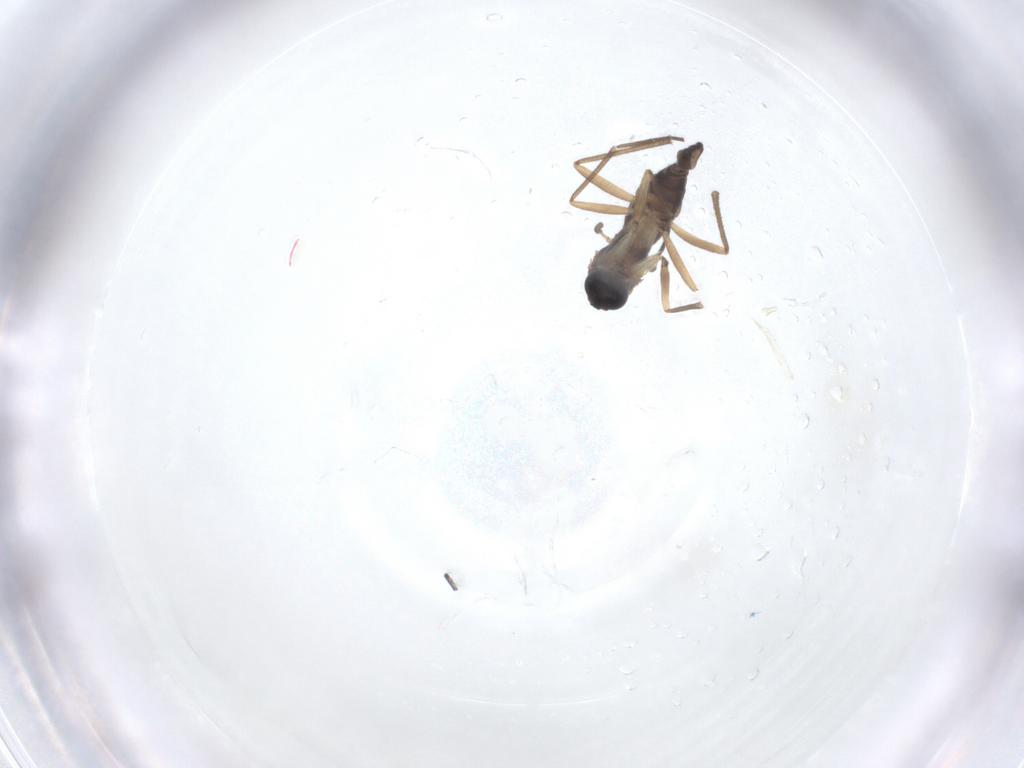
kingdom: Animalia
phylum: Arthropoda
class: Insecta
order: Diptera
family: Sciaridae
